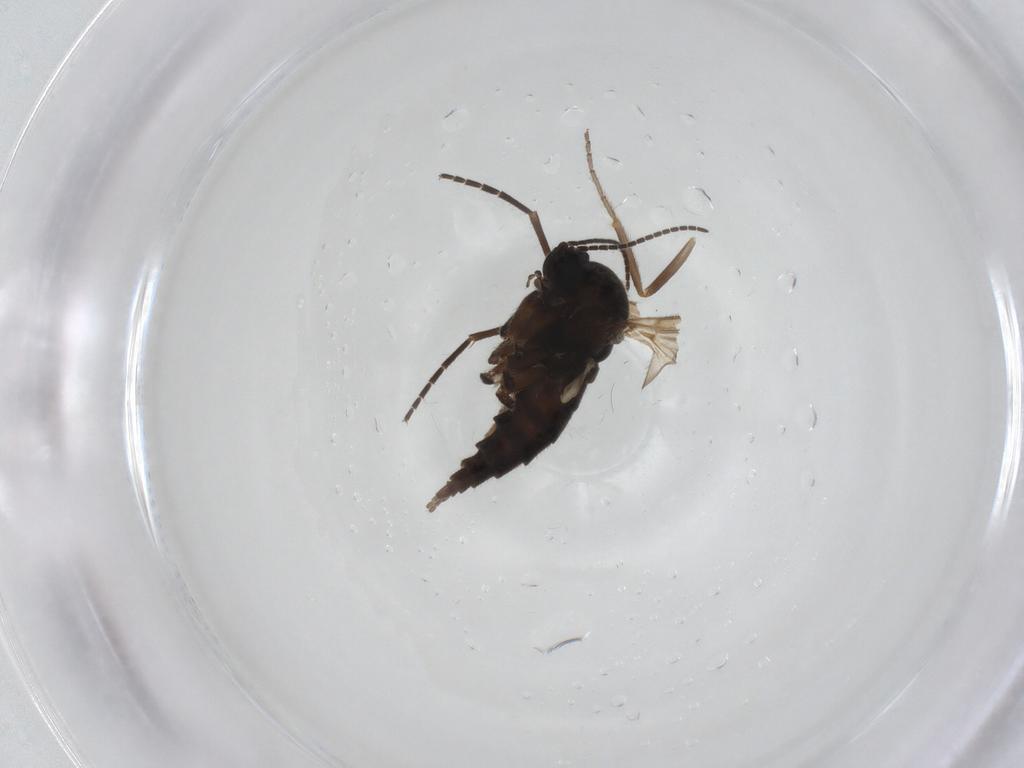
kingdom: Animalia
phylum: Arthropoda
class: Insecta
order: Diptera
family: Sciaridae
